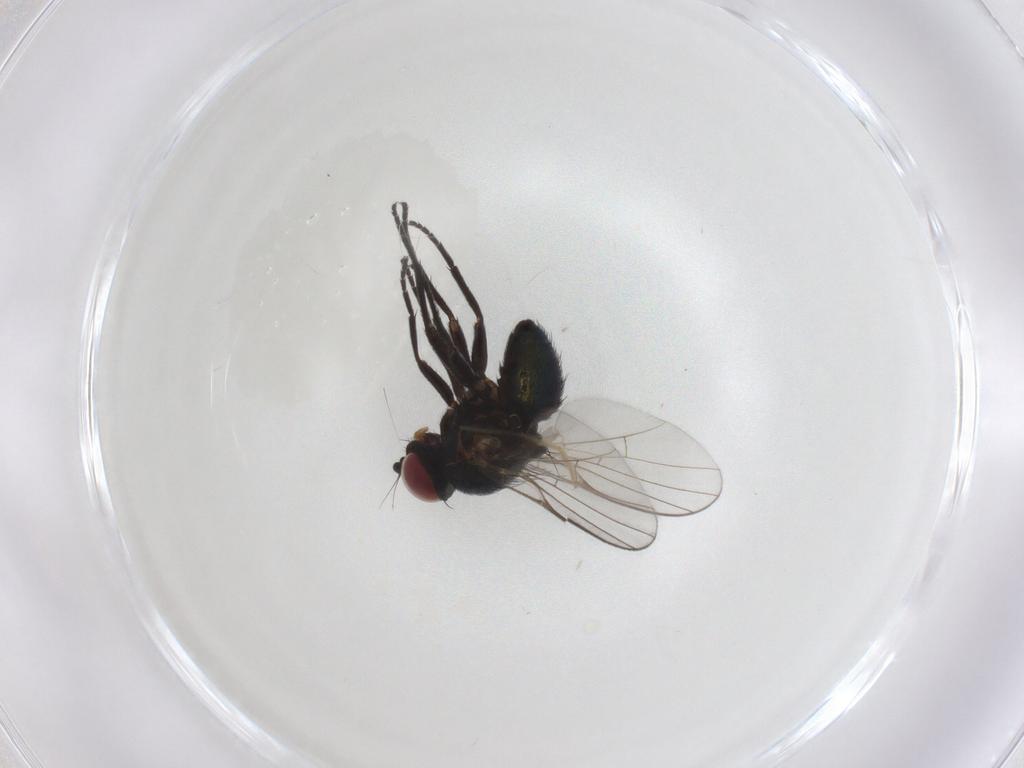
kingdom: Animalia
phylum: Arthropoda
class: Insecta
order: Diptera
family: Agromyzidae
